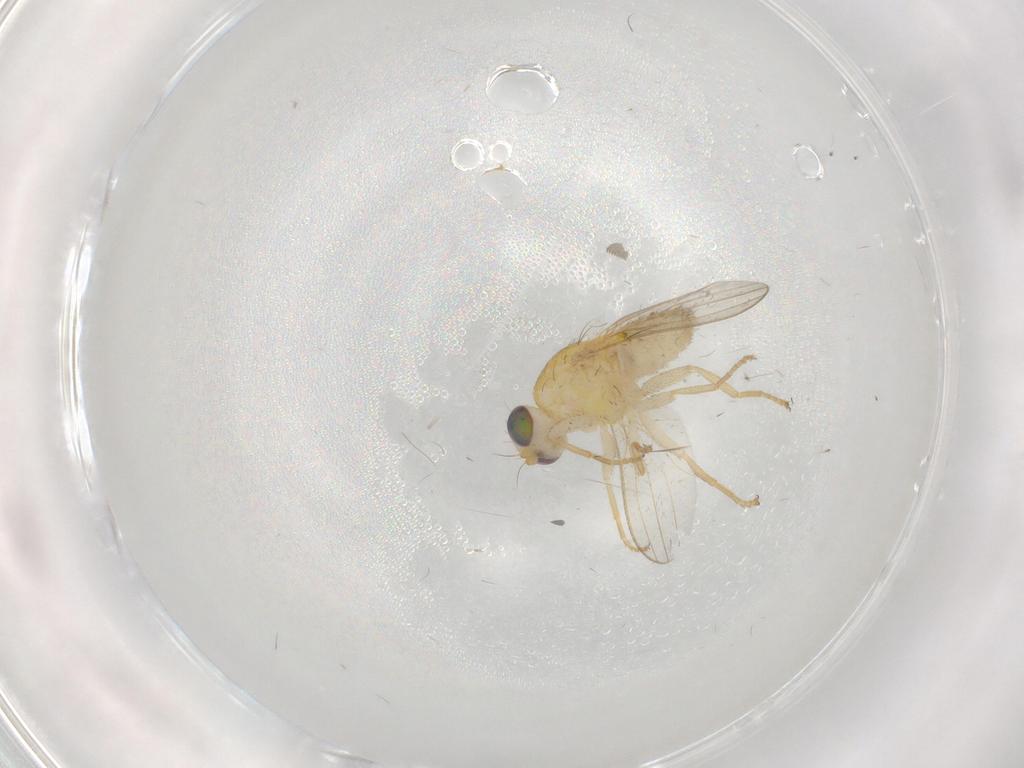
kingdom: Animalia
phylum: Arthropoda
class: Insecta
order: Diptera
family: Chyromyidae
